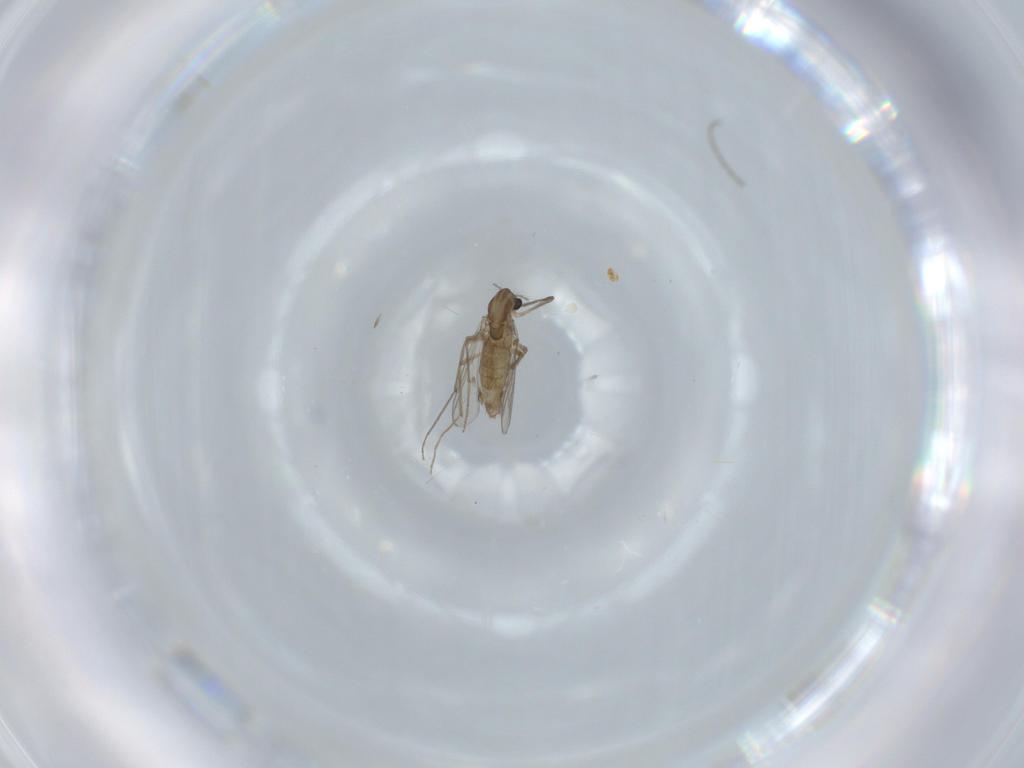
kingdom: Animalia
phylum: Arthropoda
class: Insecta
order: Diptera
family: Chironomidae
